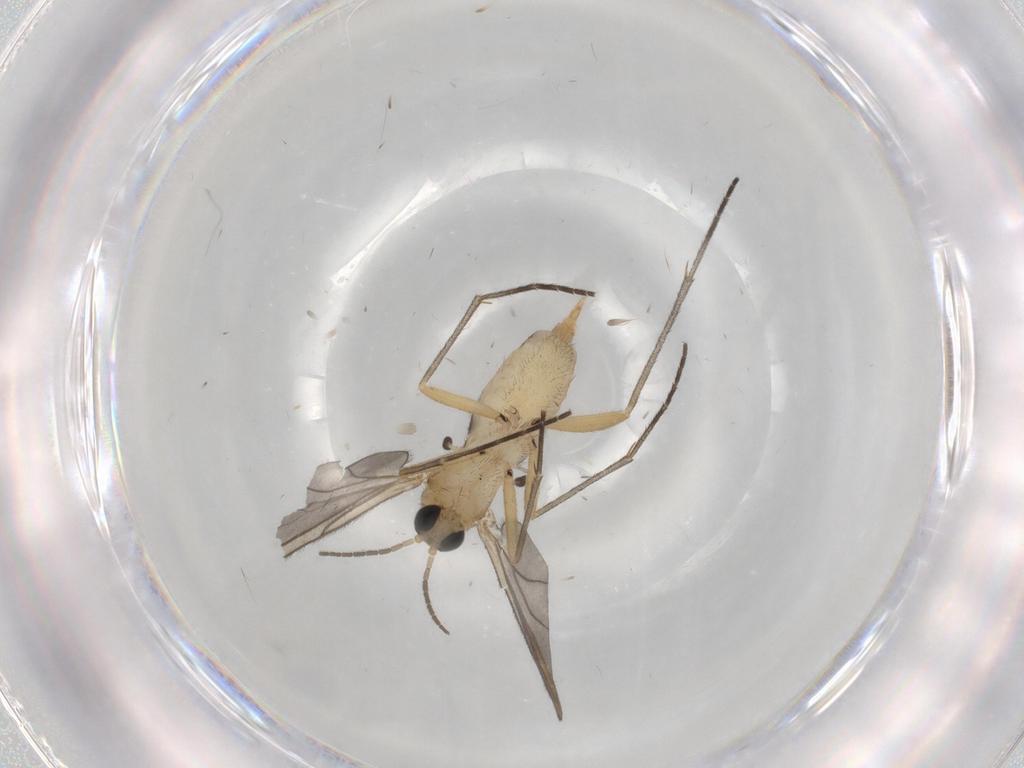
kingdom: Animalia
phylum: Arthropoda
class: Insecta
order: Diptera
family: Sciaridae
